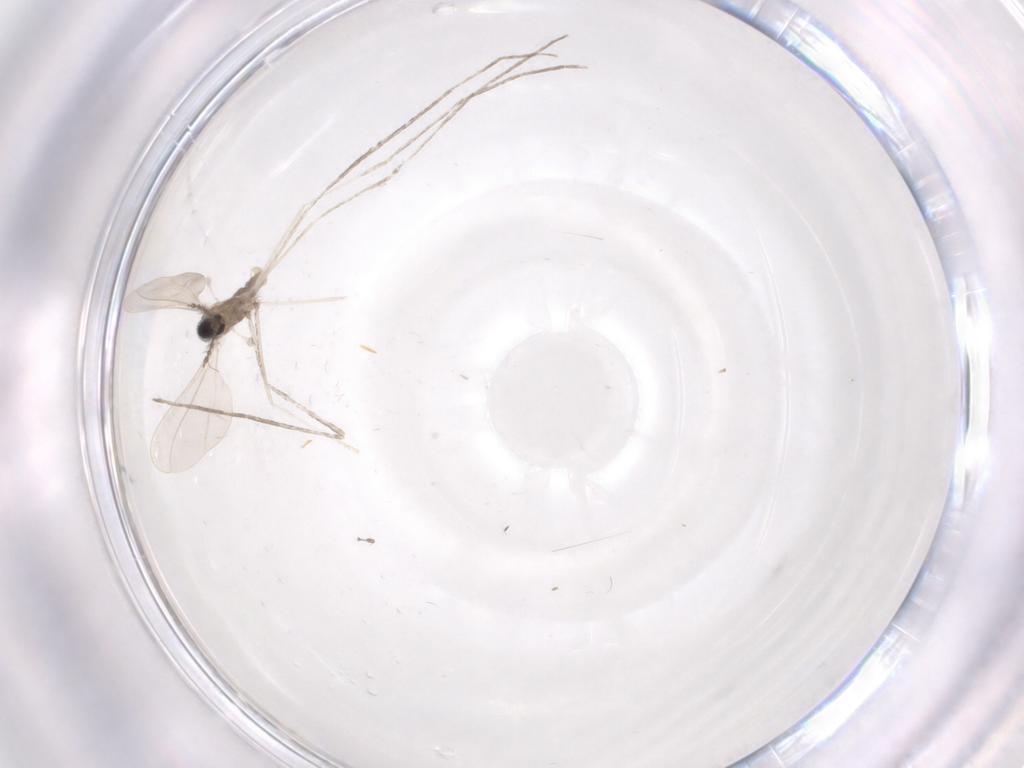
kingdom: Animalia
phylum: Arthropoda
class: Insecta
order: Diptera
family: Cecidomyiidae
